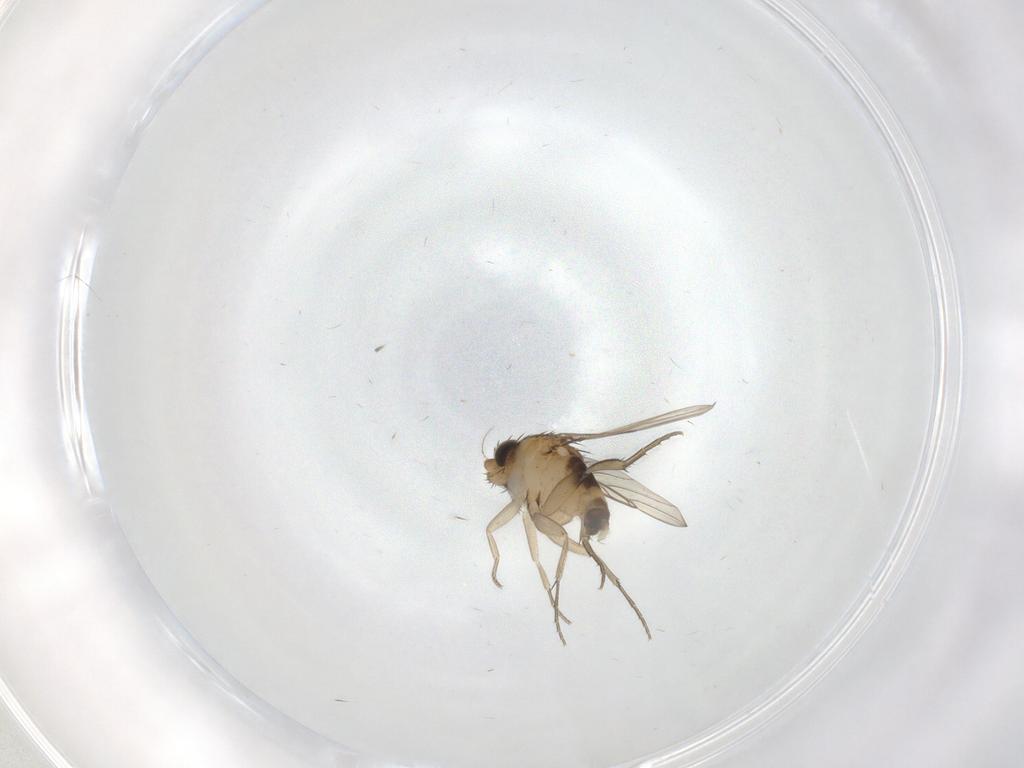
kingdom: Animalia
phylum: Arthropoda
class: Insecta
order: Diptera
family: Phoridae
